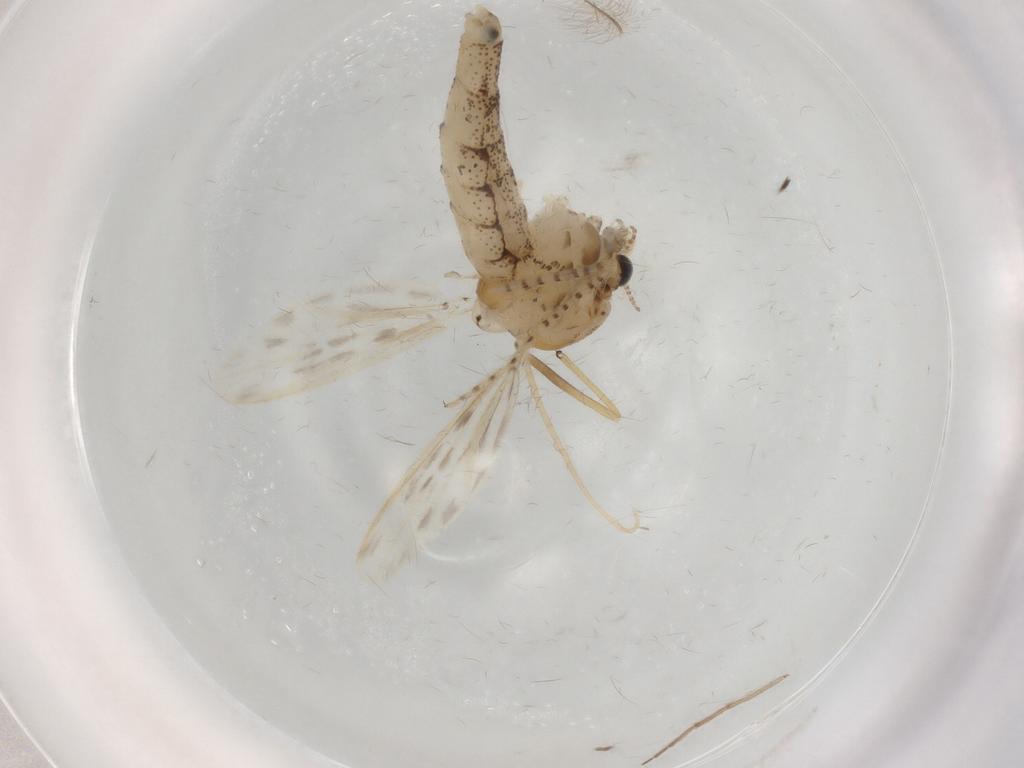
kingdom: Animalia
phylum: Arthropoda
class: Insecta
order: Diptera
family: Chaoboridae
